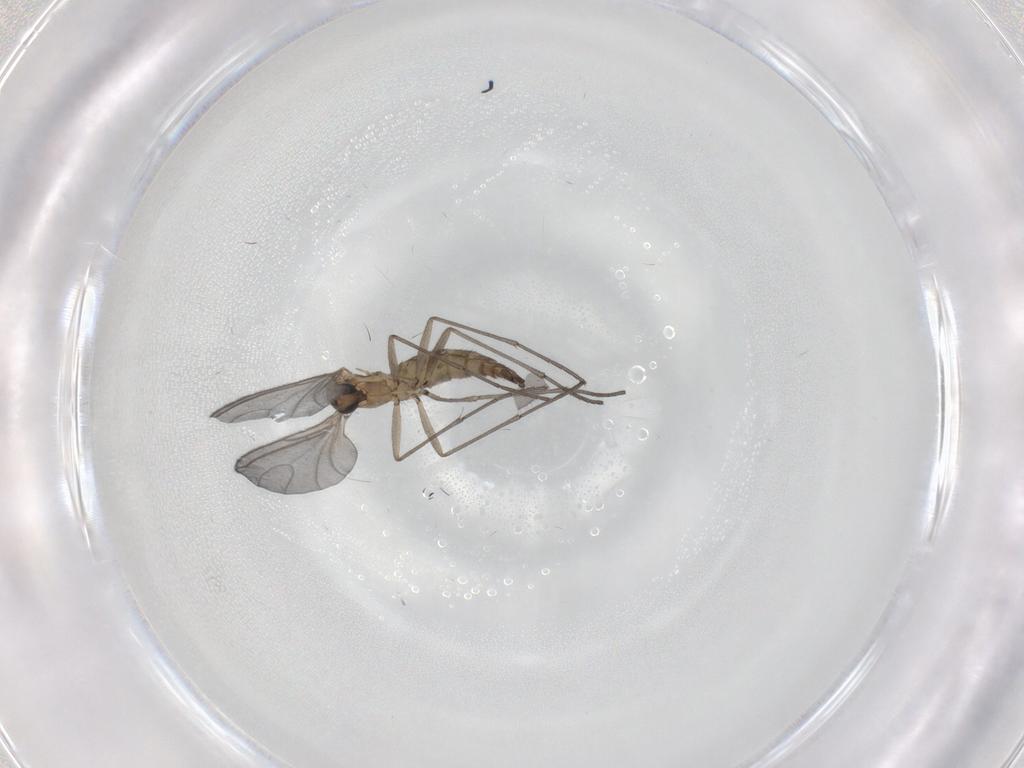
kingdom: Animalia
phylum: Arthropoda
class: Insecta
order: Diptera
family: Sciaridae
